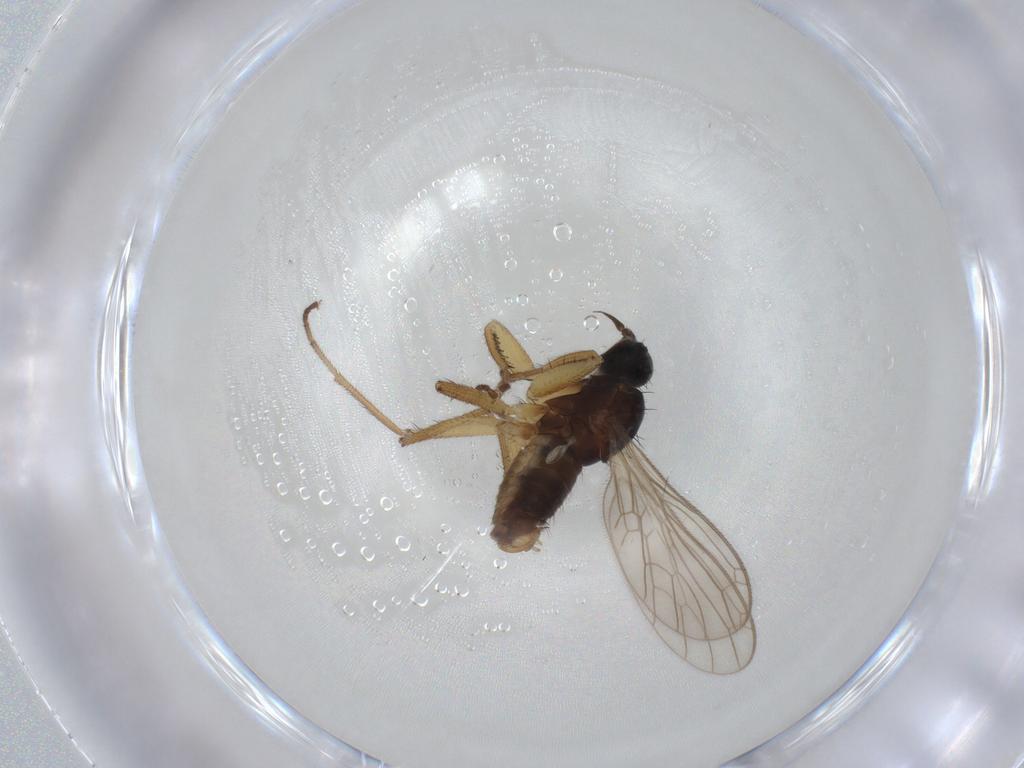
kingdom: Animalia
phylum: Arthropoda
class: Insecta
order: Diptera
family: Empididae
